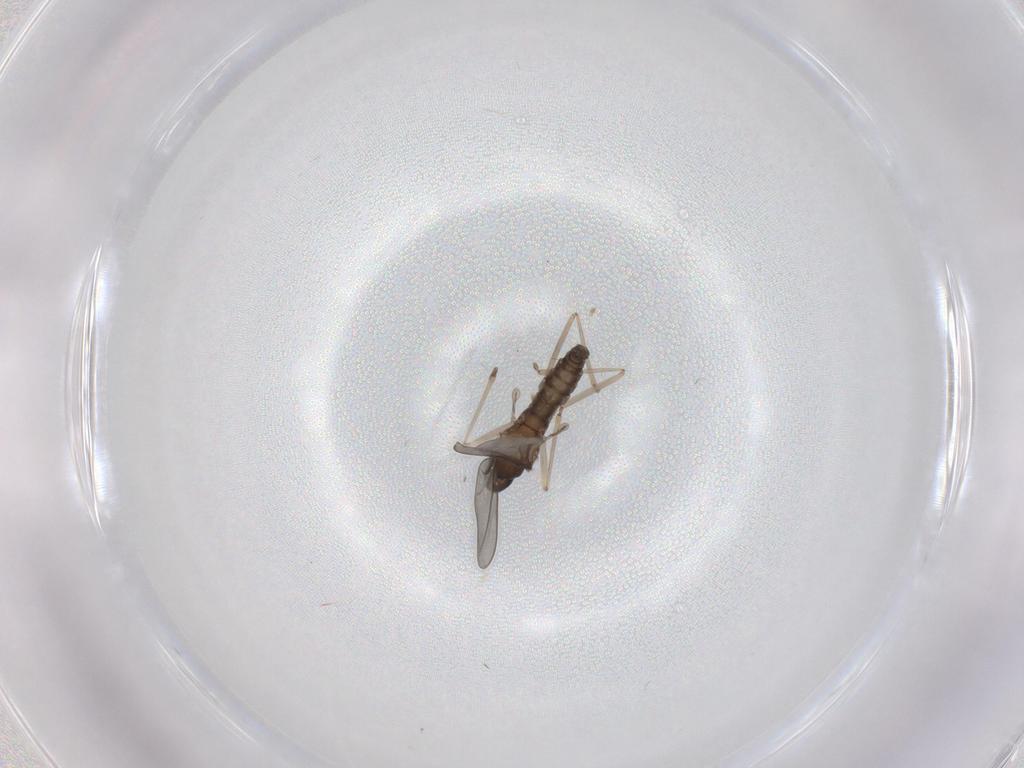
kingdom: Animalia
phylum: Arthropoda
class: Insecta
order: Diptera
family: Cecidomyiidae
